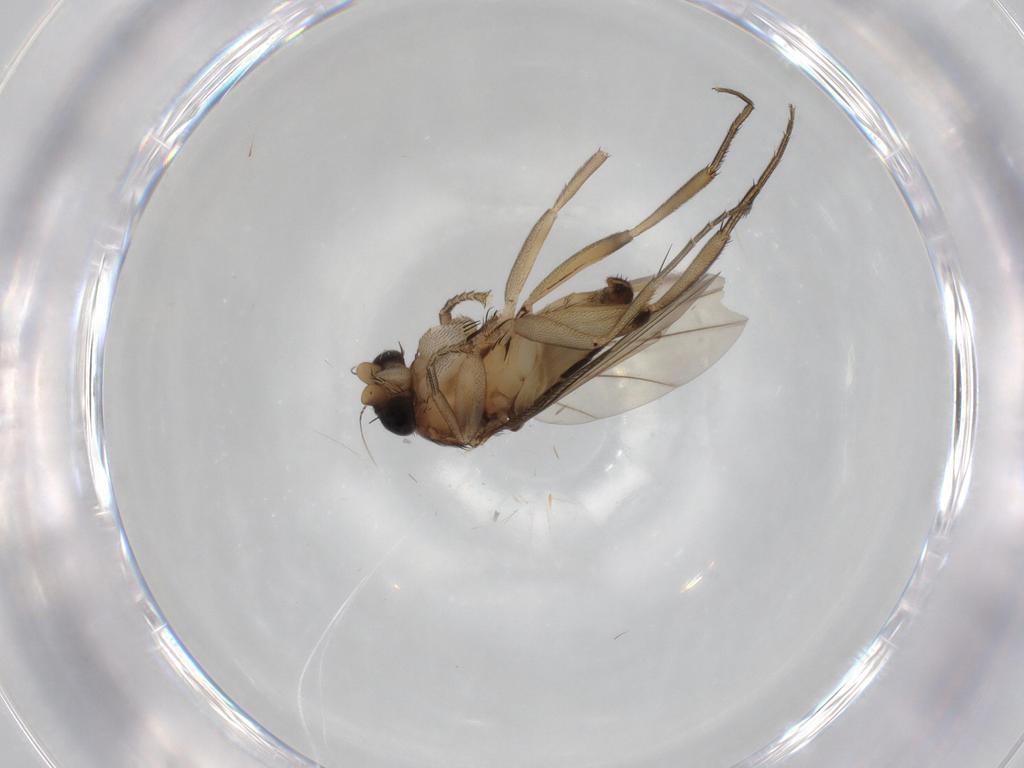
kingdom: Animalia
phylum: Arthropoda
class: Insecta
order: Diptera
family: Phoridae
